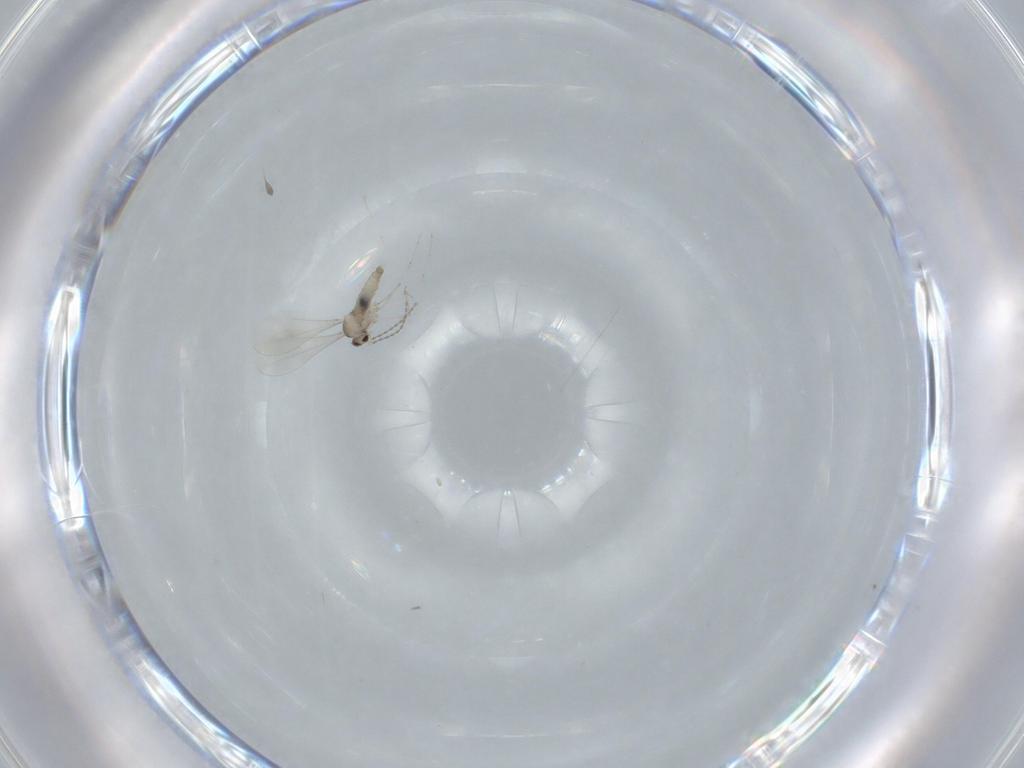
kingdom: Animalia
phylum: Arthropoda
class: Insecta
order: Diptera
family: Cecidomyiidae
